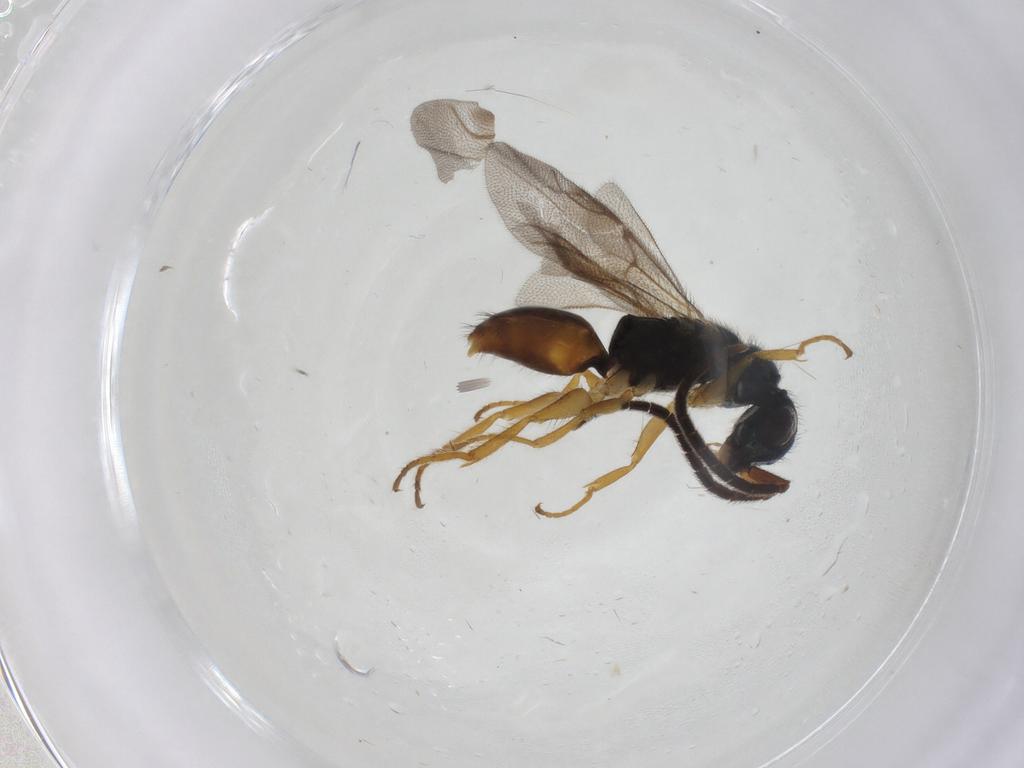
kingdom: Animalia
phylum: Arthropoda
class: Insecta
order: Hymenoptera
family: Chrysididae
